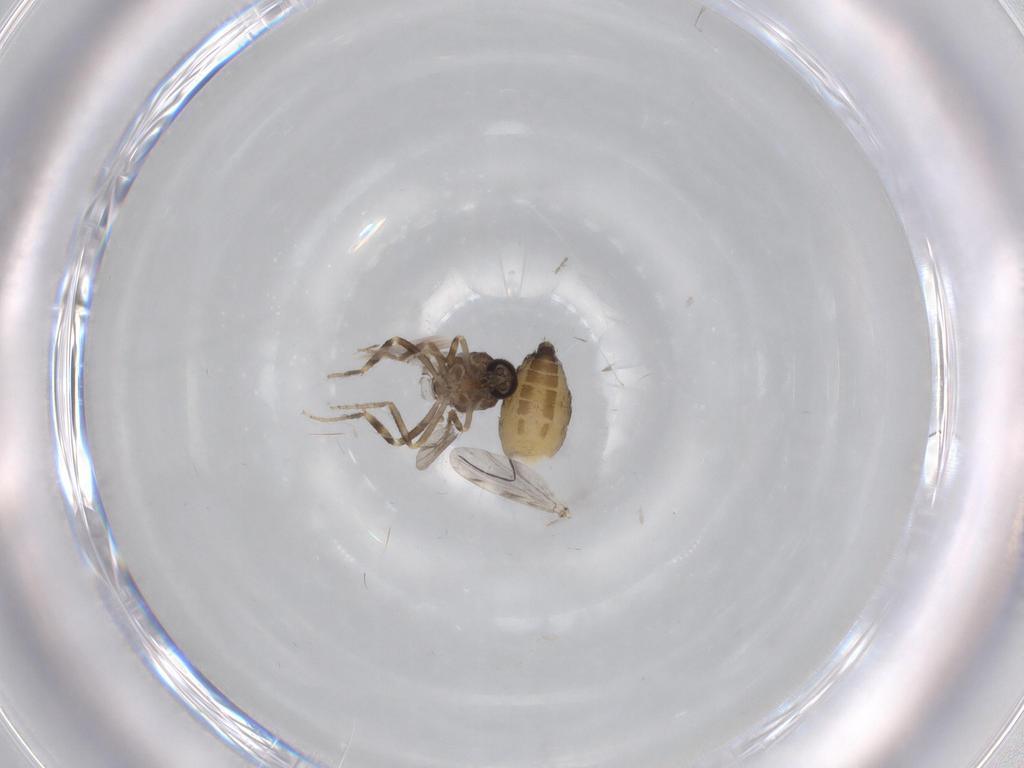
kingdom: Animalia
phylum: Arthropoda
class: Insecta
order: Diptera
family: Ceratopogonidae
